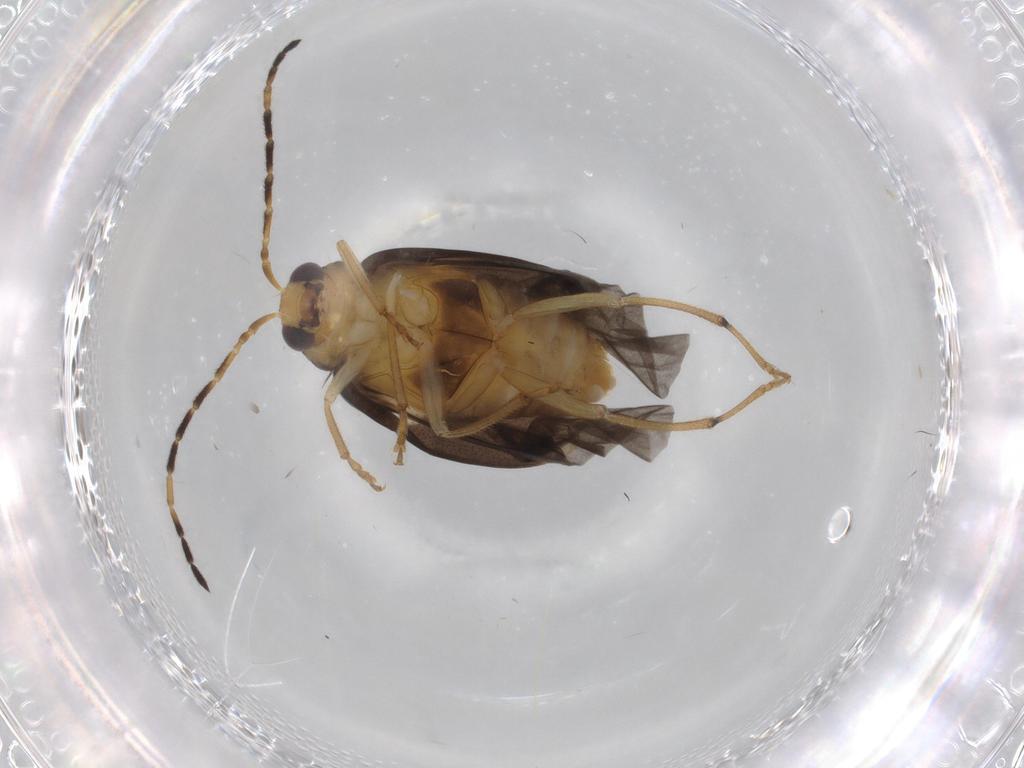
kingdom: Animalia
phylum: Arthropoda
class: Insecta
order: Coleoptera
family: Chrysomelidae
